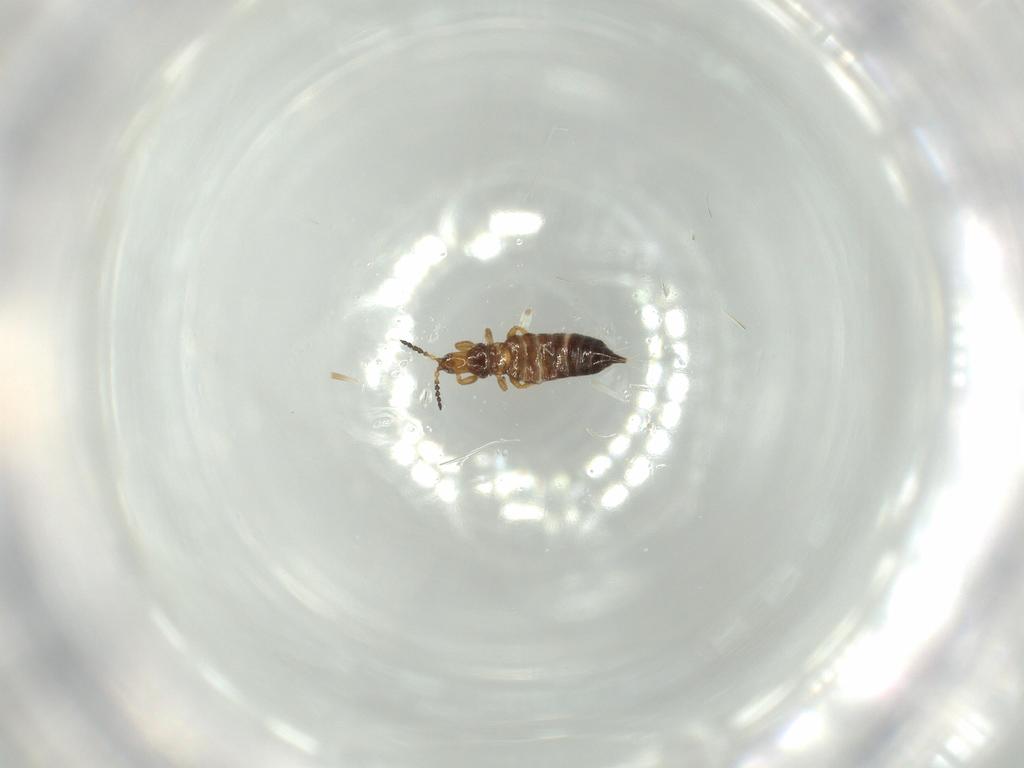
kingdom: Animalia
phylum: Arthropoda
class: Insecta
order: Thysanoptera
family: Phlaeothripidae
